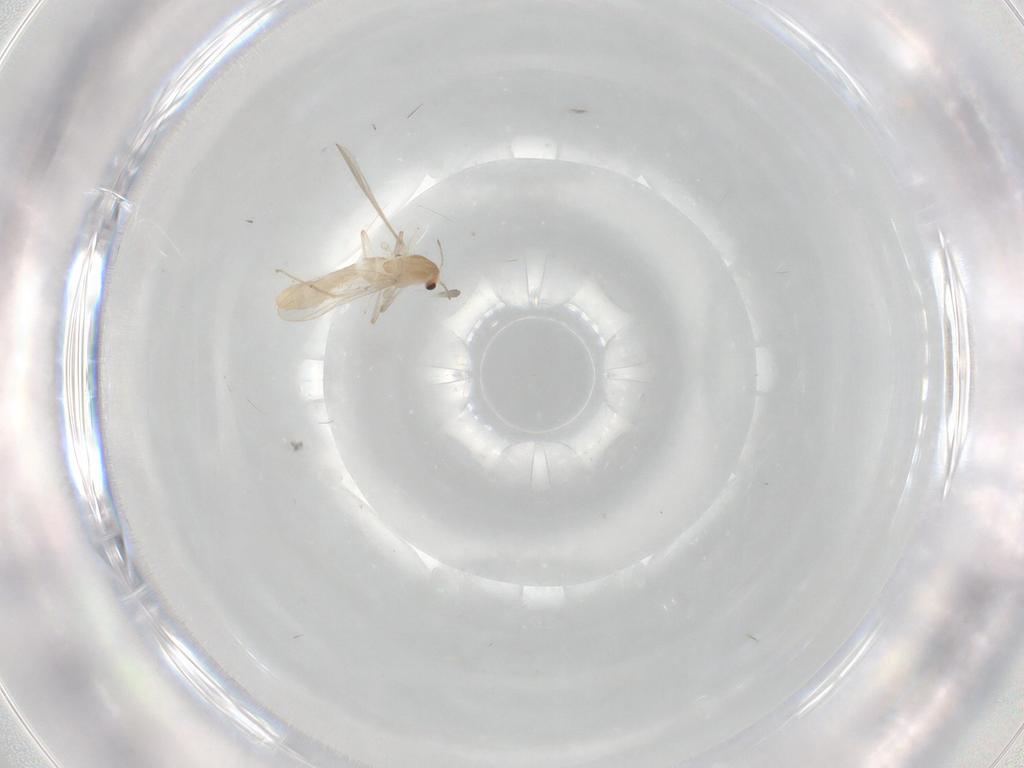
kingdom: Animalia
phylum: Arthropoda
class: Insecta
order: Diptera
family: Chironomidae
